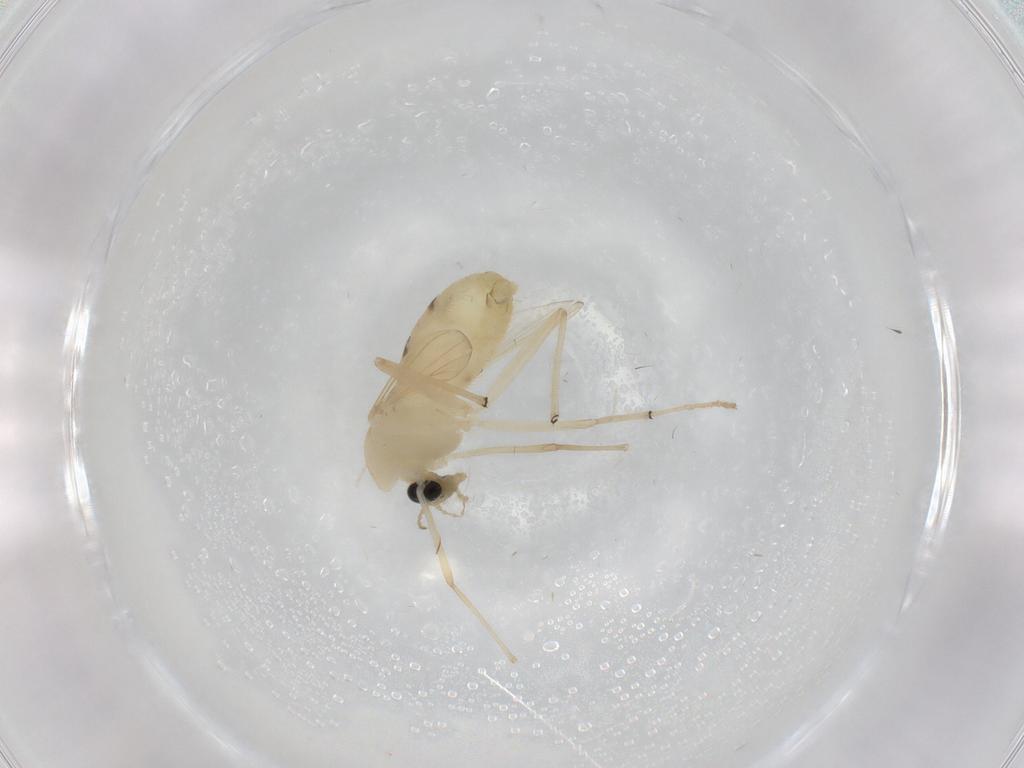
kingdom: Animalia
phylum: Arthropoda
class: Insecta
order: Diptera
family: Chironomidae
